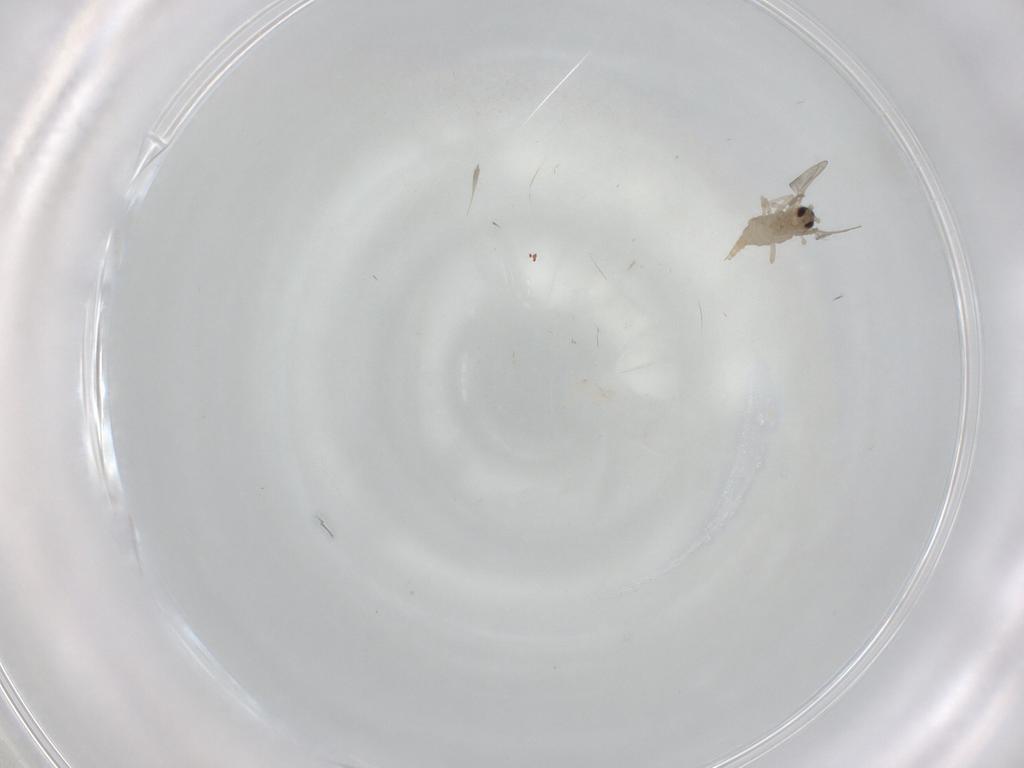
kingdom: Animalia
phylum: Arthropoda
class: Insecta
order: Diptera
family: Cecidomyiidae
